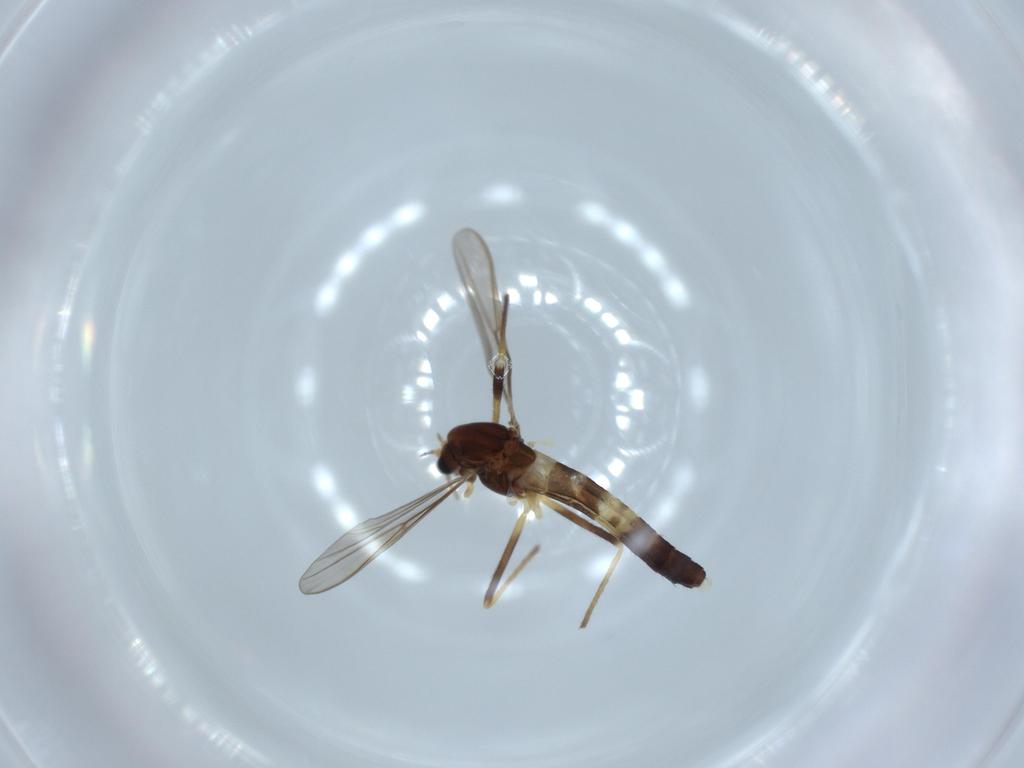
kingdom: Animalia
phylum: Arthropoda
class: Insecta
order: Diptera
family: Chironomidae
